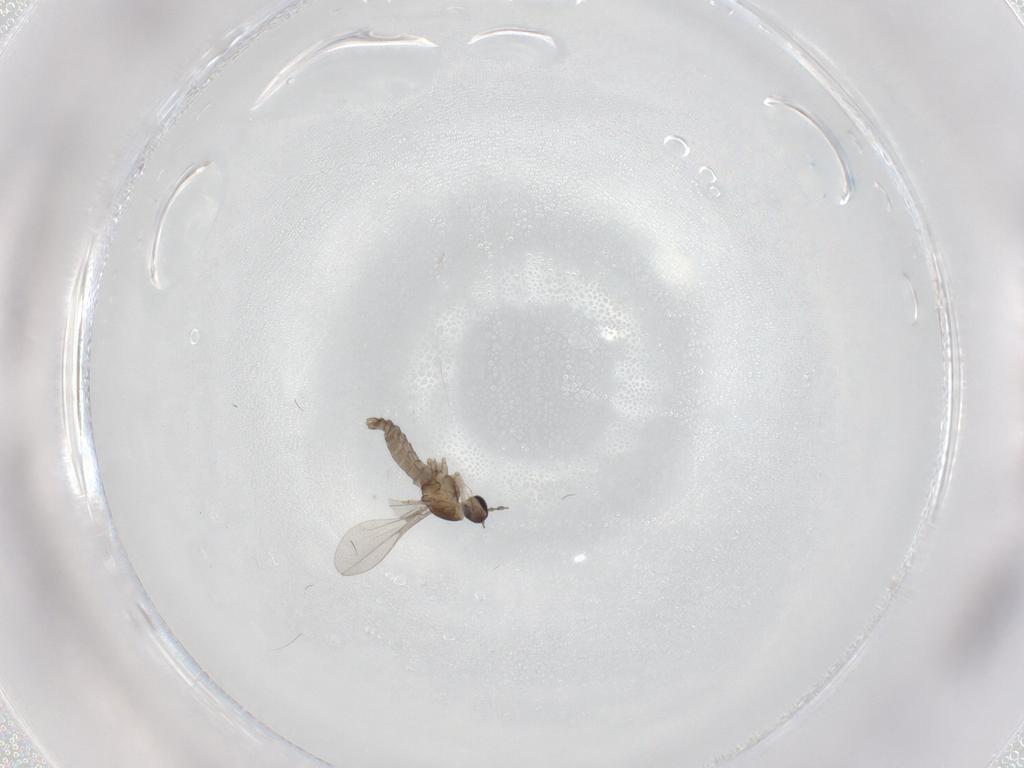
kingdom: Animalia
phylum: Arthropoda
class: Insecta
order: Diptera
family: Cecidomyiidae
